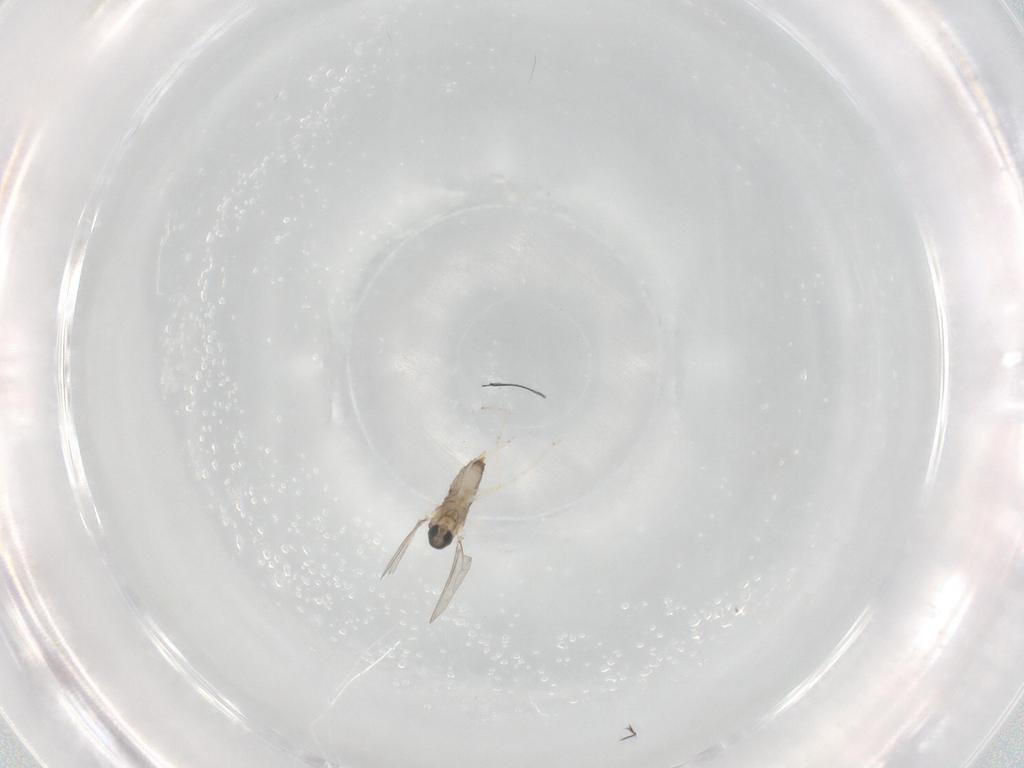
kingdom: Animalia
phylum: Arthropoda
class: Insecta
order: Diptera
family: Cecidomyiidae
